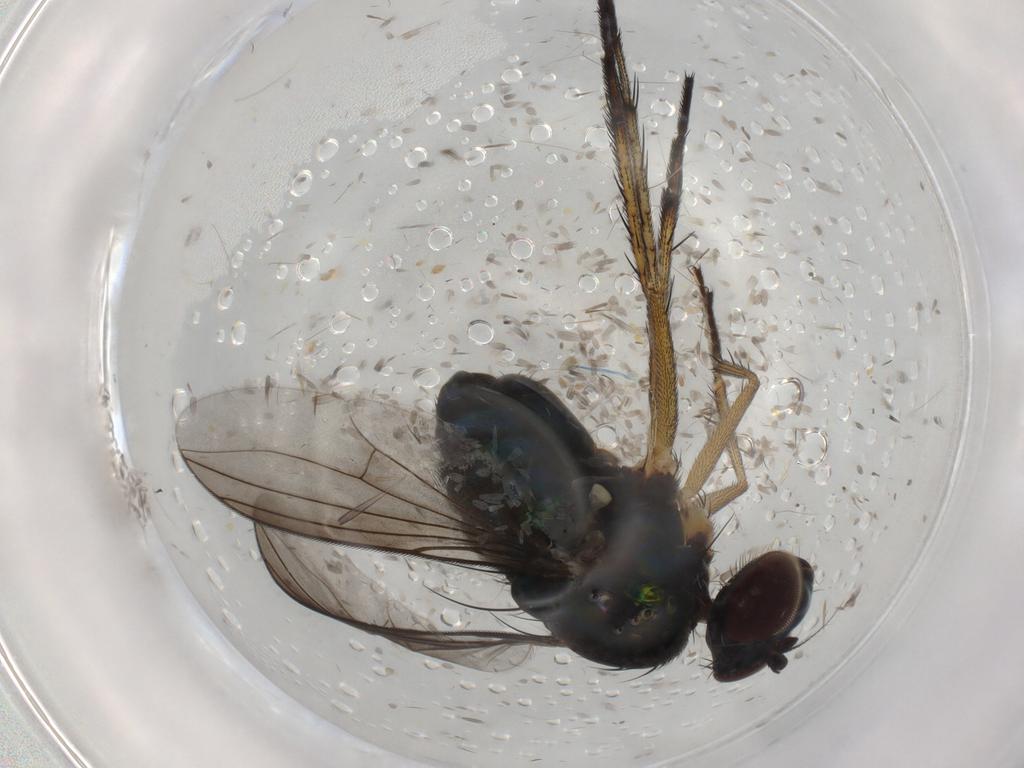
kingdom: Animalia
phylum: Arthropoda
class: Insecta
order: Diptera
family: Dolichopodidae
